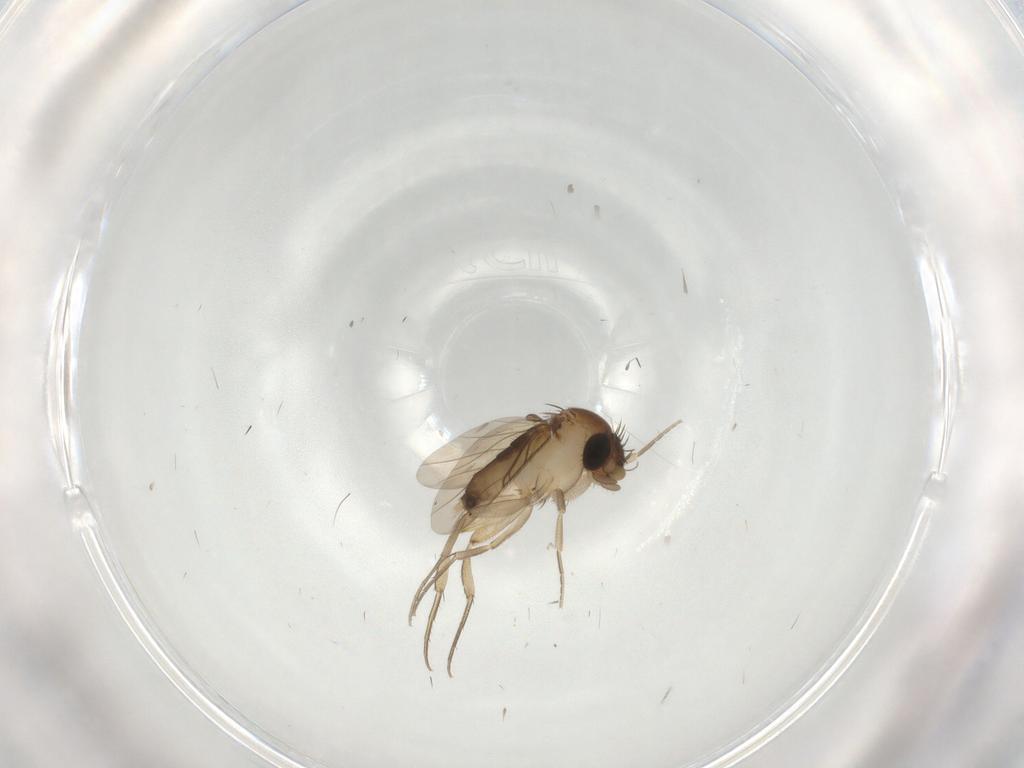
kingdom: Animalia
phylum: Arthropoda
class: Insecta
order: Diptera
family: Chironomidae
